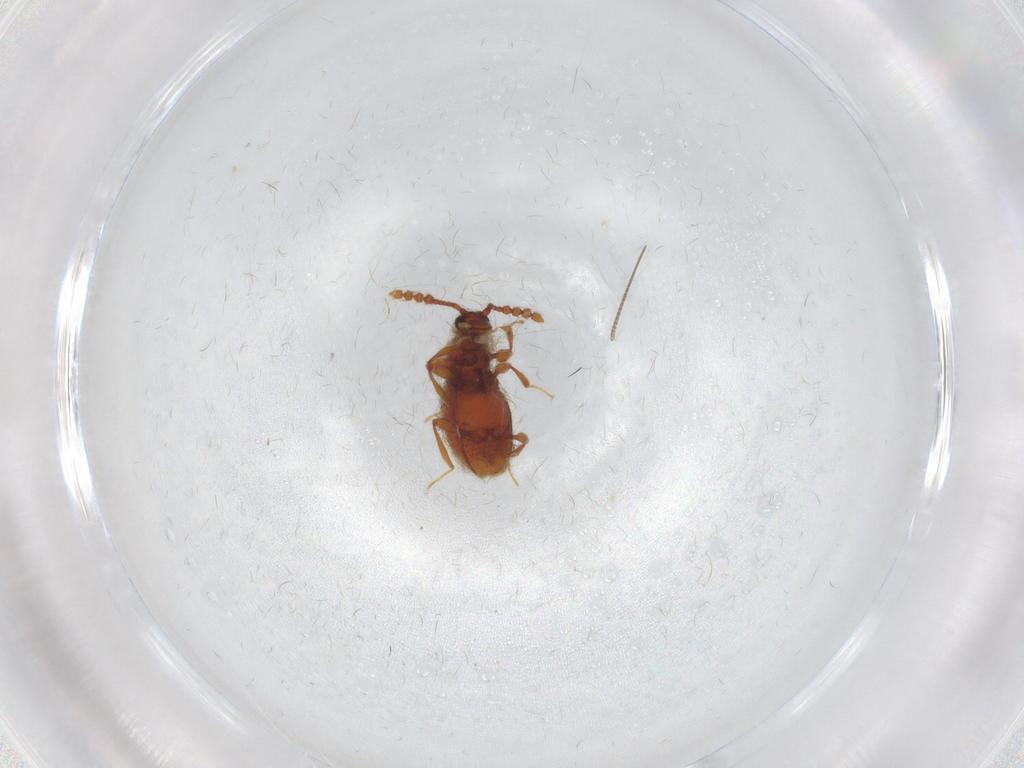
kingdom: Animalia
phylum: Arthropoda
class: Insecta
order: Coleoptera
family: Staphylinidae
